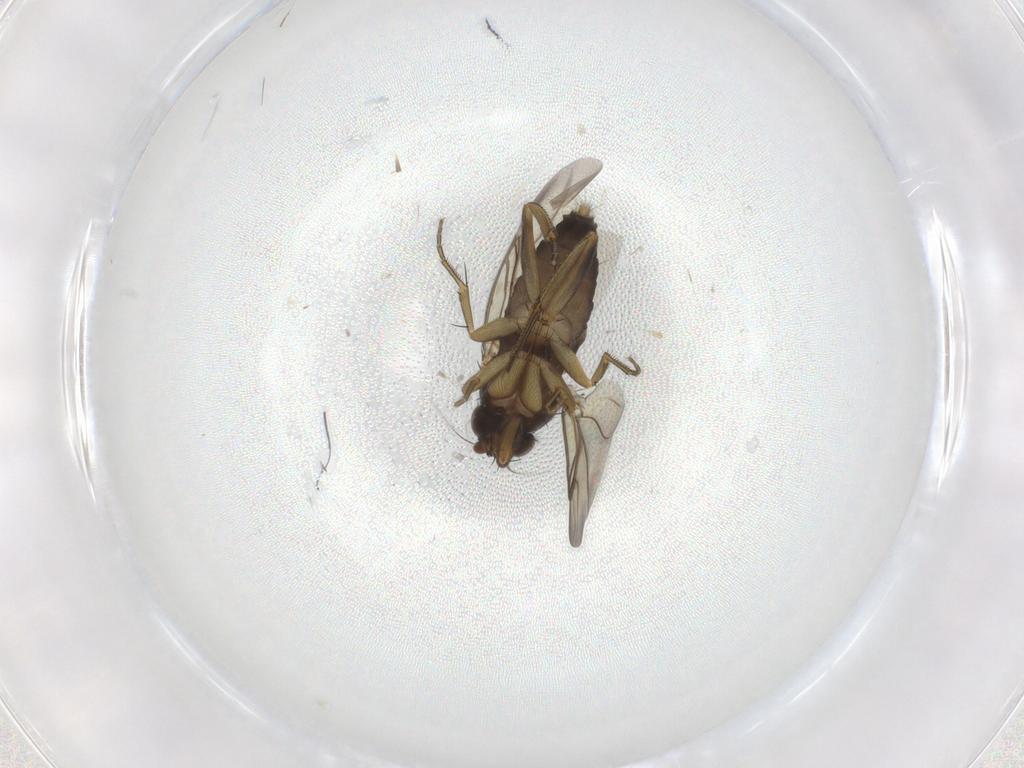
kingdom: Animalia
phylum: Arthropoda
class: Insecta
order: Diptera
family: Phoridae
